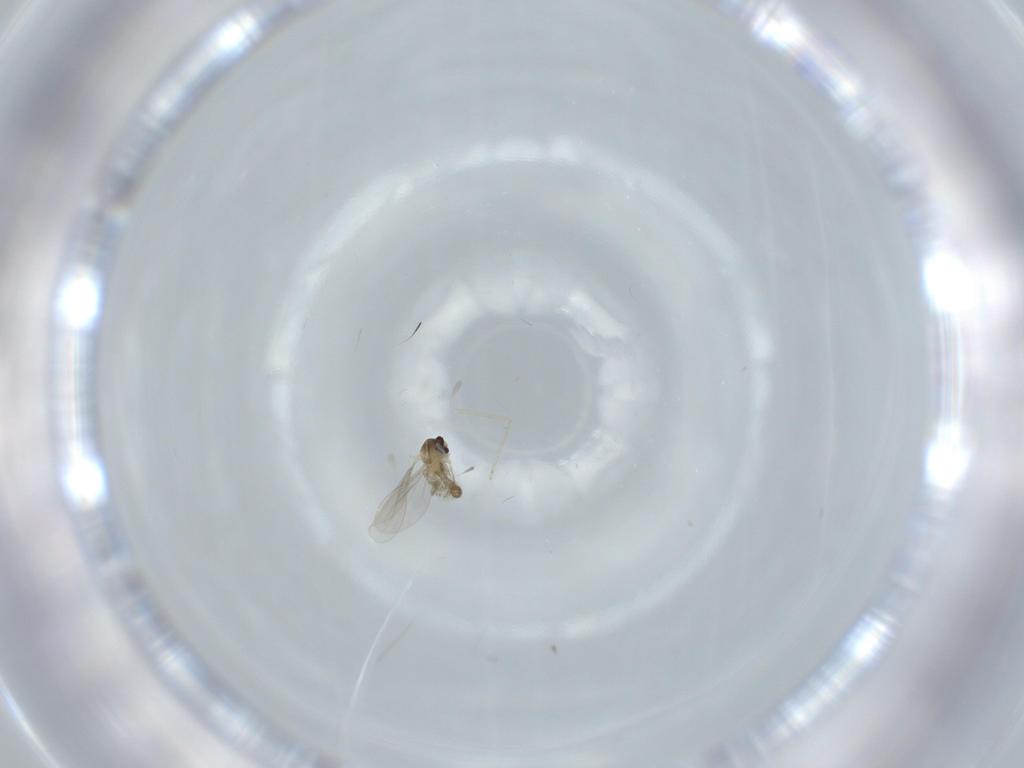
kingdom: Animalia
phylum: Arthropoda
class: Insecta
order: Diptera
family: Cecidomyiidae
